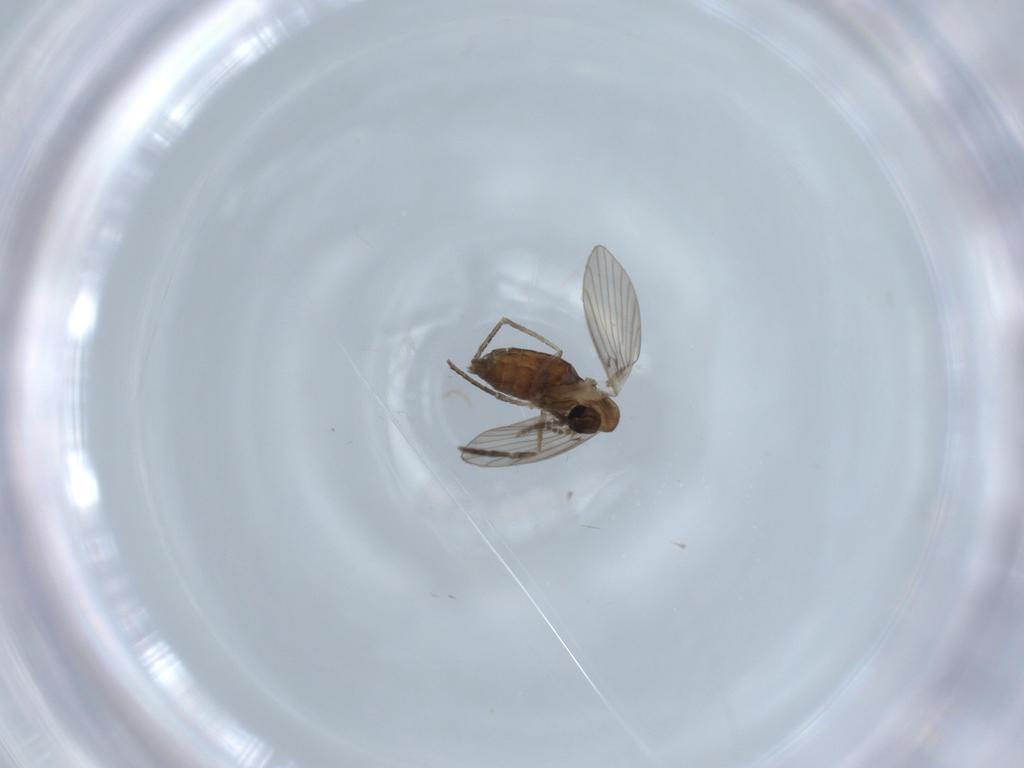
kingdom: Animalia
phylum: Arthropoda
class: Insecta
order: Diptera
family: Psychodidae
